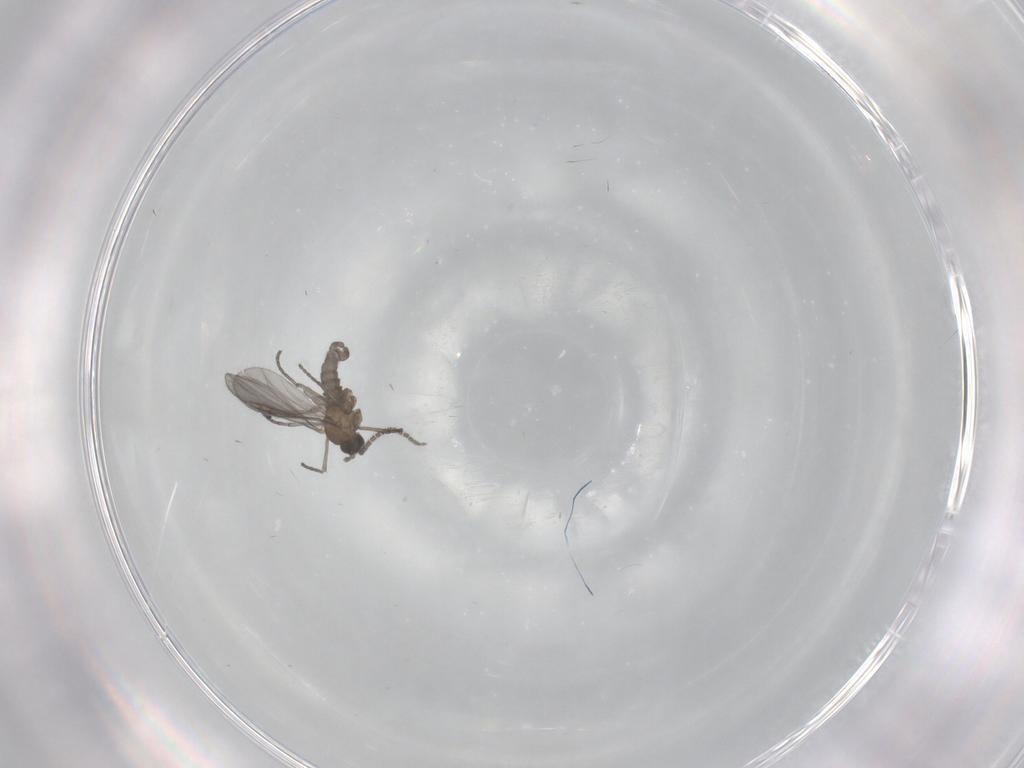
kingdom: Animalia
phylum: Arthropoda
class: Insecta
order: Diptera
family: Sciaridae
